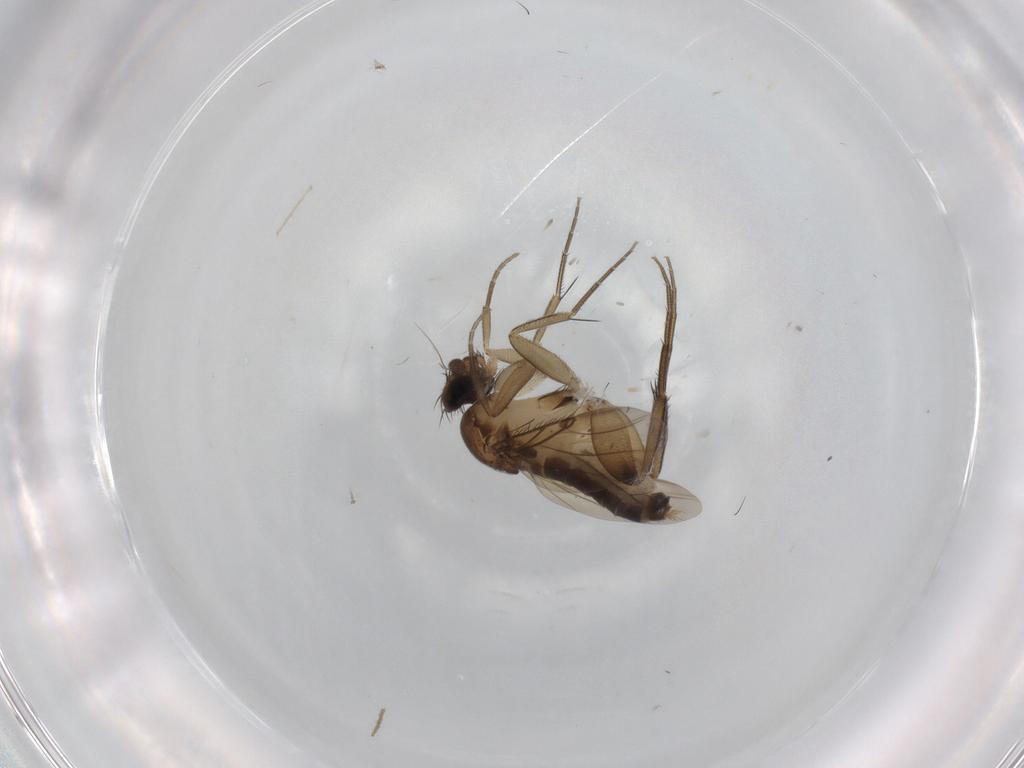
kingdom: Animalia
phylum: Arthropoda
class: Insecta
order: Diptera
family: Phoridae
